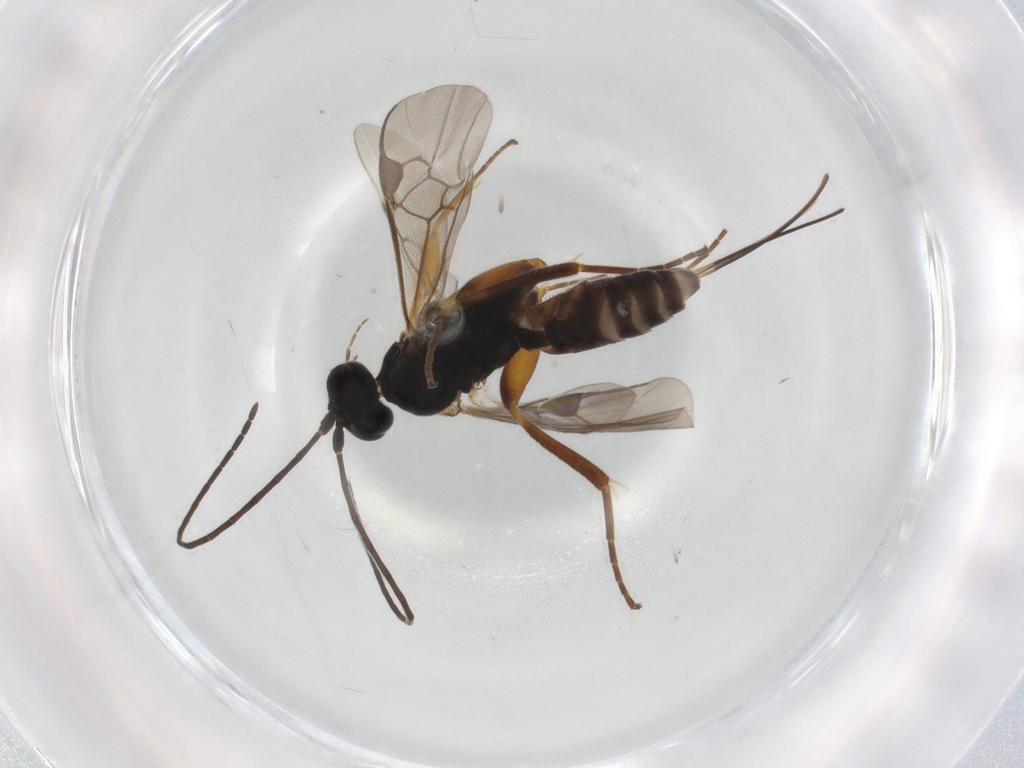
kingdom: Animalia
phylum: Arthropoda
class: Insecta
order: Hymenoptera
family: Braconidae
